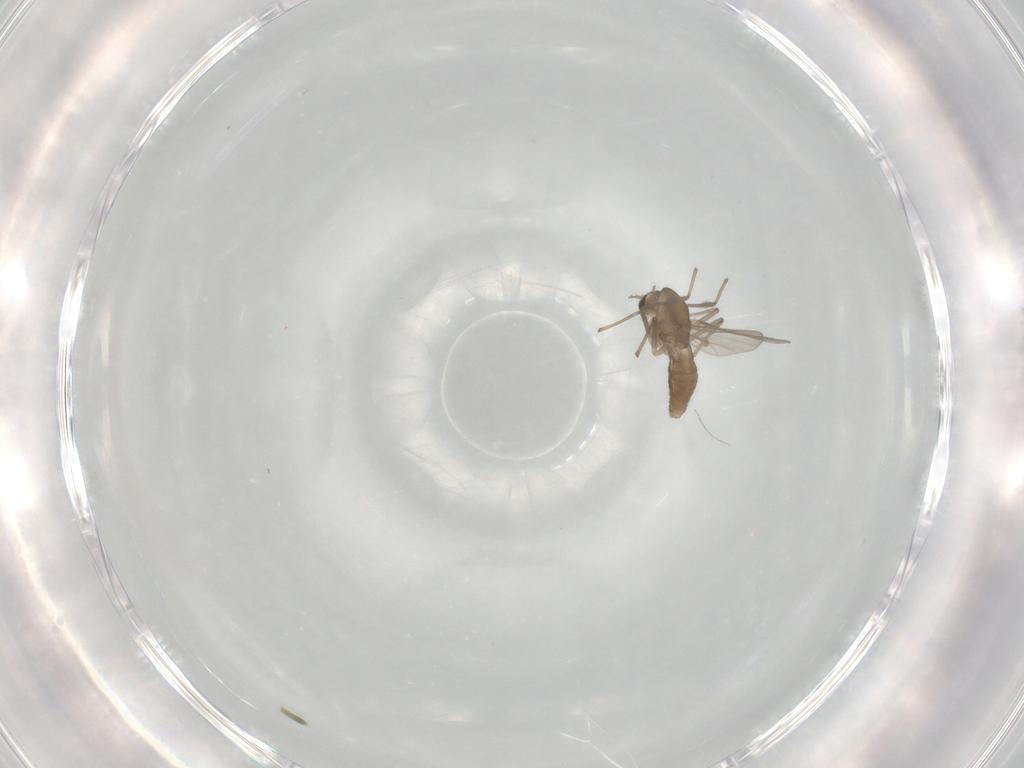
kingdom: Animalia
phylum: Arthropoda
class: Insecta
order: Diptera
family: Chironomidae
